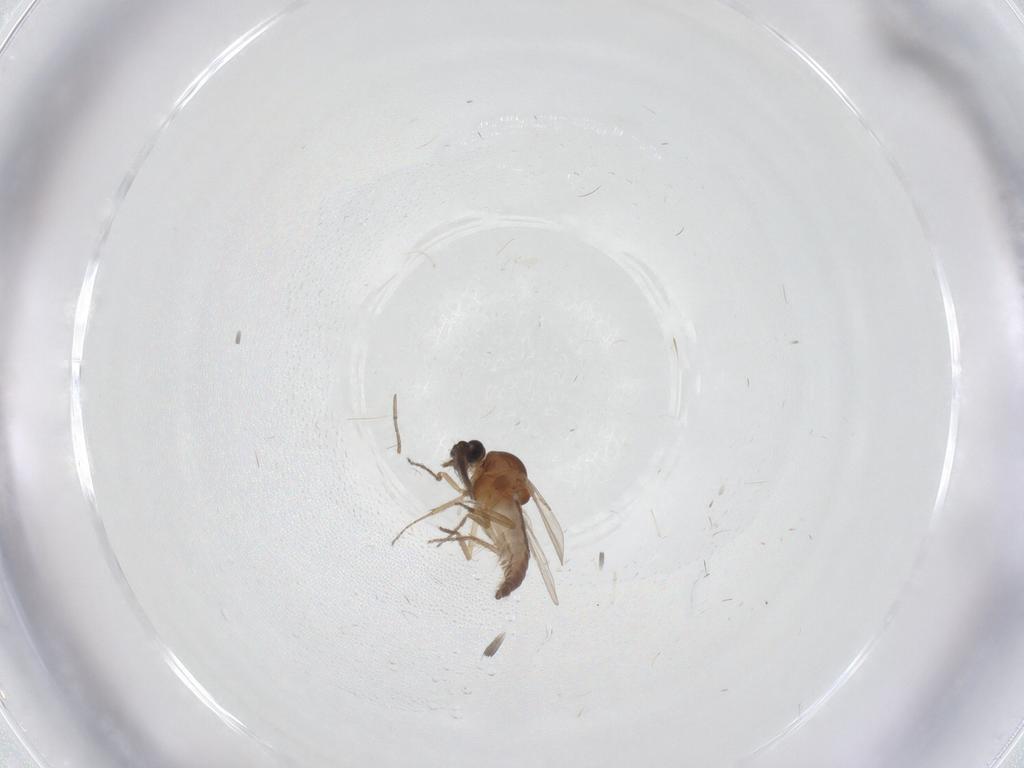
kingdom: Animalia
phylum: Arthropoda
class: Insecta
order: Diptera
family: Ceratopogonidae
